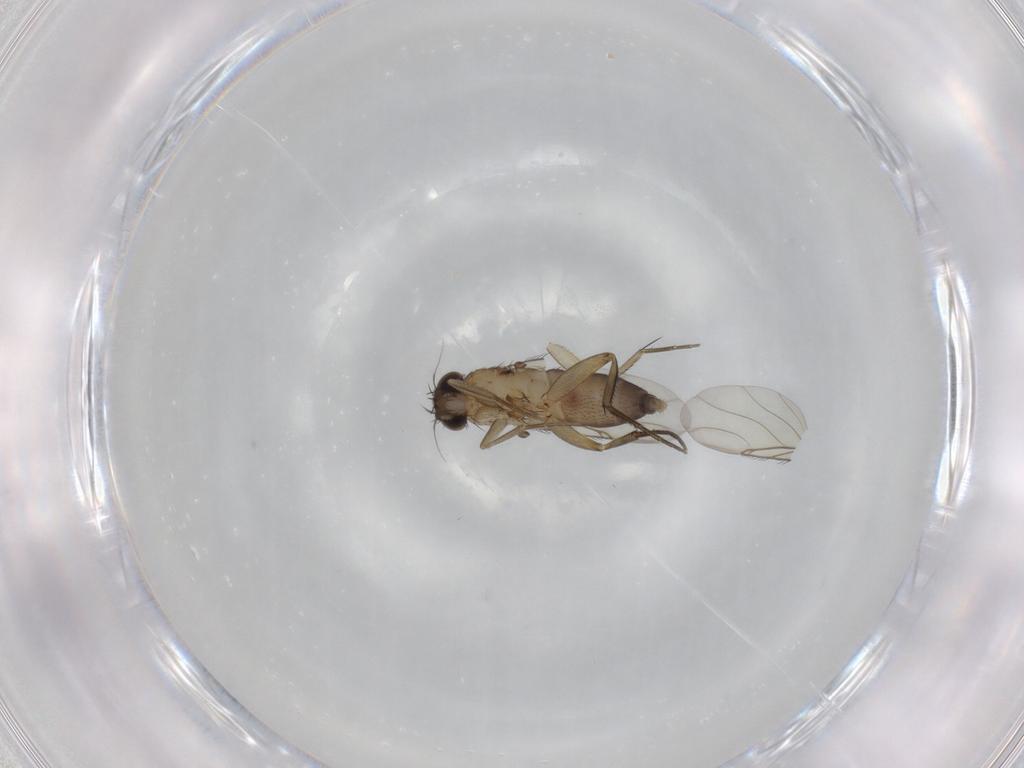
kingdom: Animalia
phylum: Arthropoda
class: Insecta
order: Diptera
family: Phoridae
